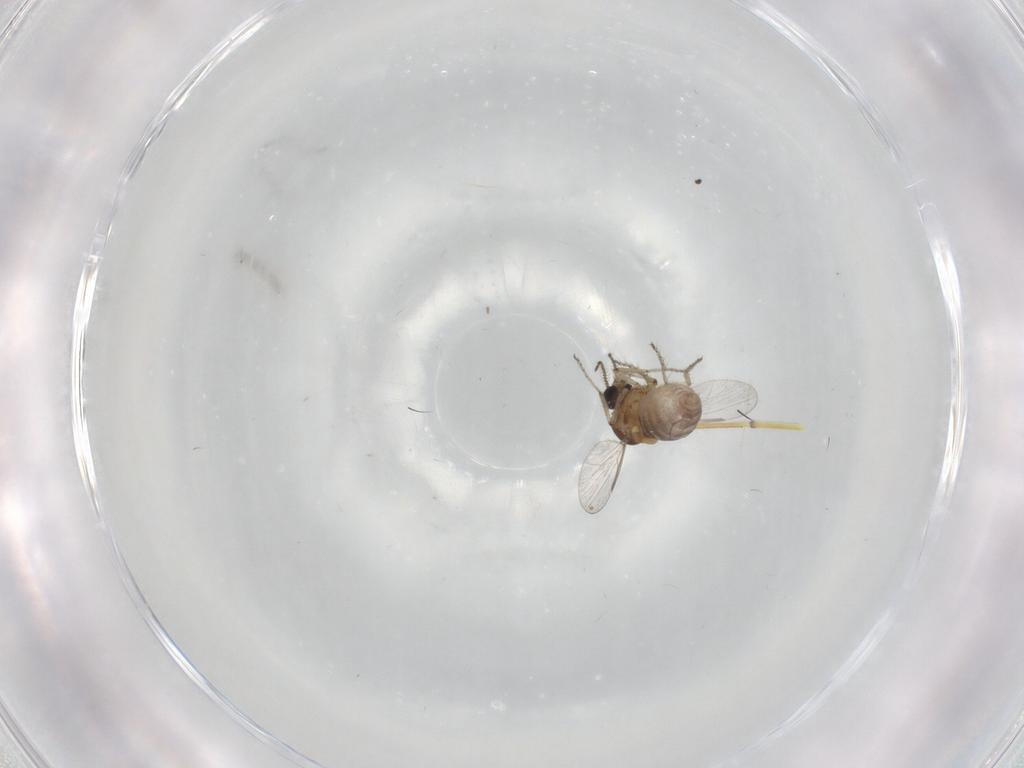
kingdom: Animalia
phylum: Arthropoda
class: Insecta
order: Diptera
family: Ceratopogonidae
